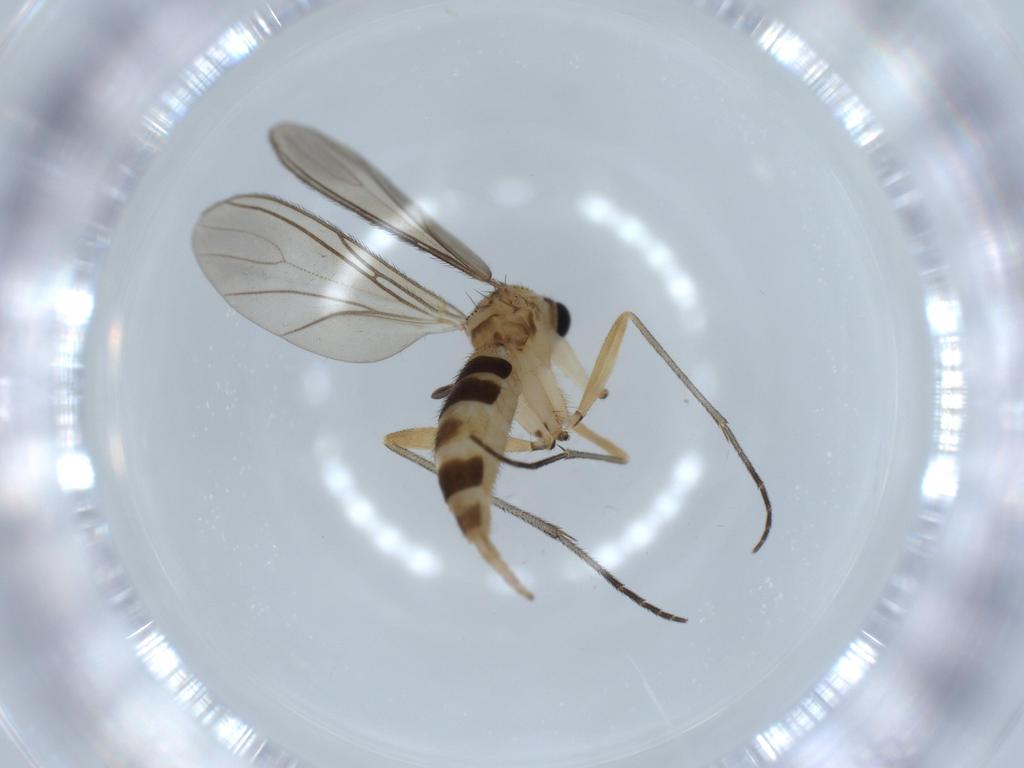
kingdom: Animalia
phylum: Arthropoda
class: Insecta
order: Diptera
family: Sciaridae
